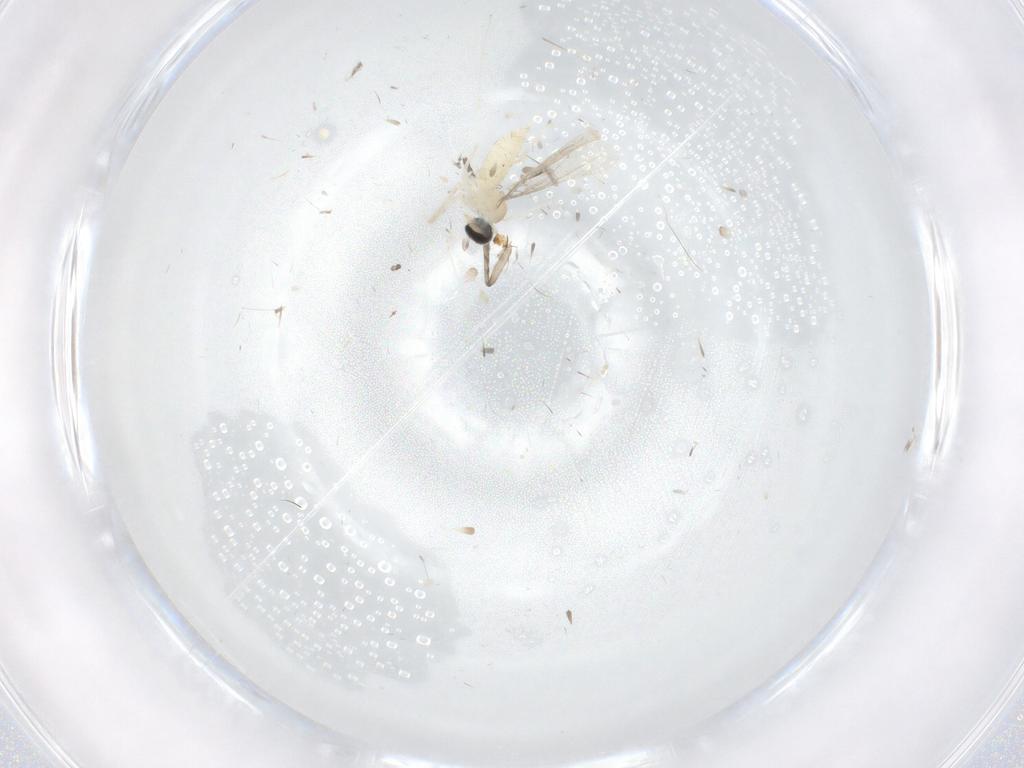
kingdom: Animalia
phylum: Arthropoda
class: Insecta
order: Diptera
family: Cecidomyiidae
